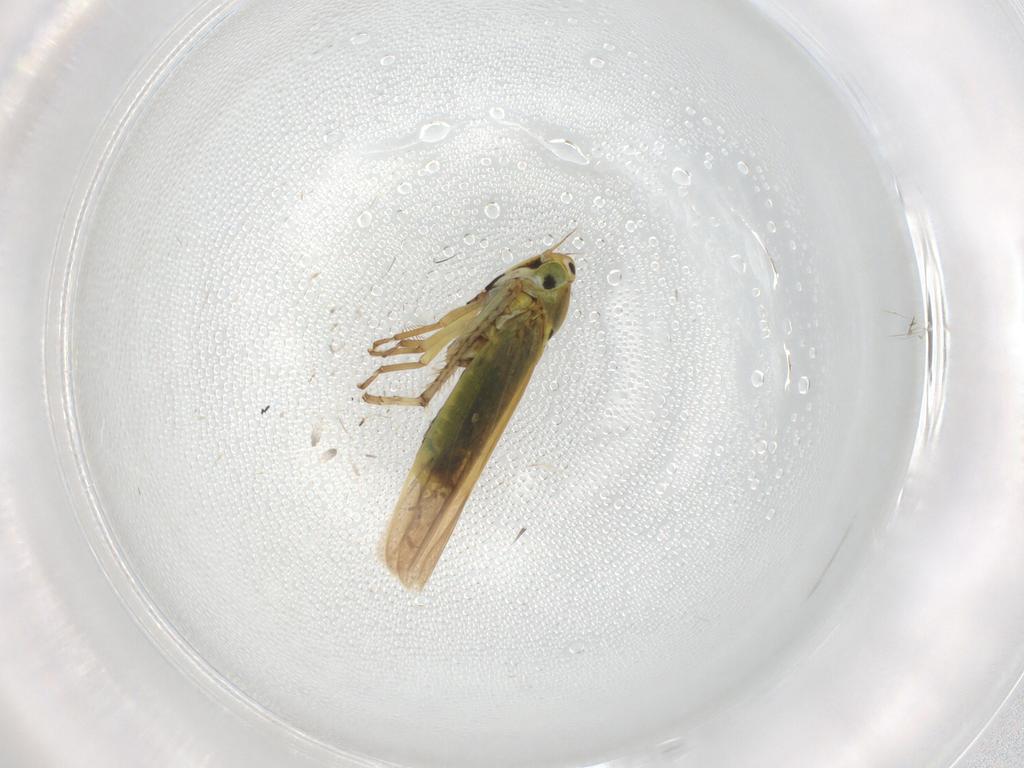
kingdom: Animalia
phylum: Arthropoda
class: Insecta
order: Hemiptera
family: Cicadellidae
